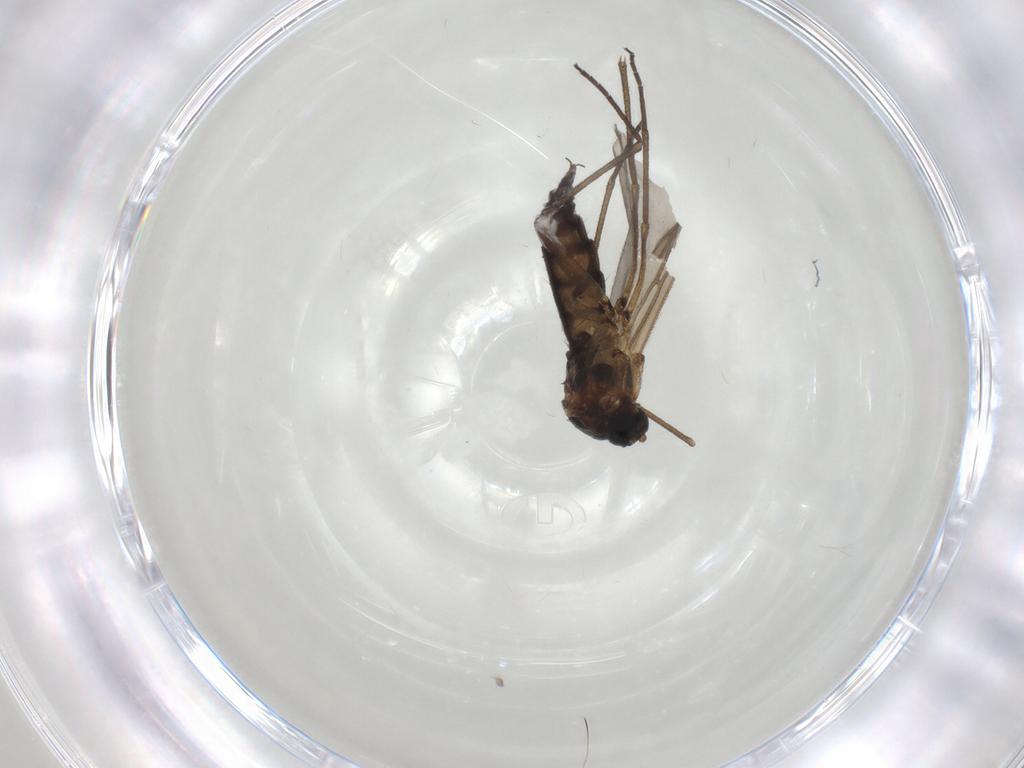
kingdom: Animalia
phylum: Arthropoda
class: Insecta
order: Diptera
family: Sciaridae
